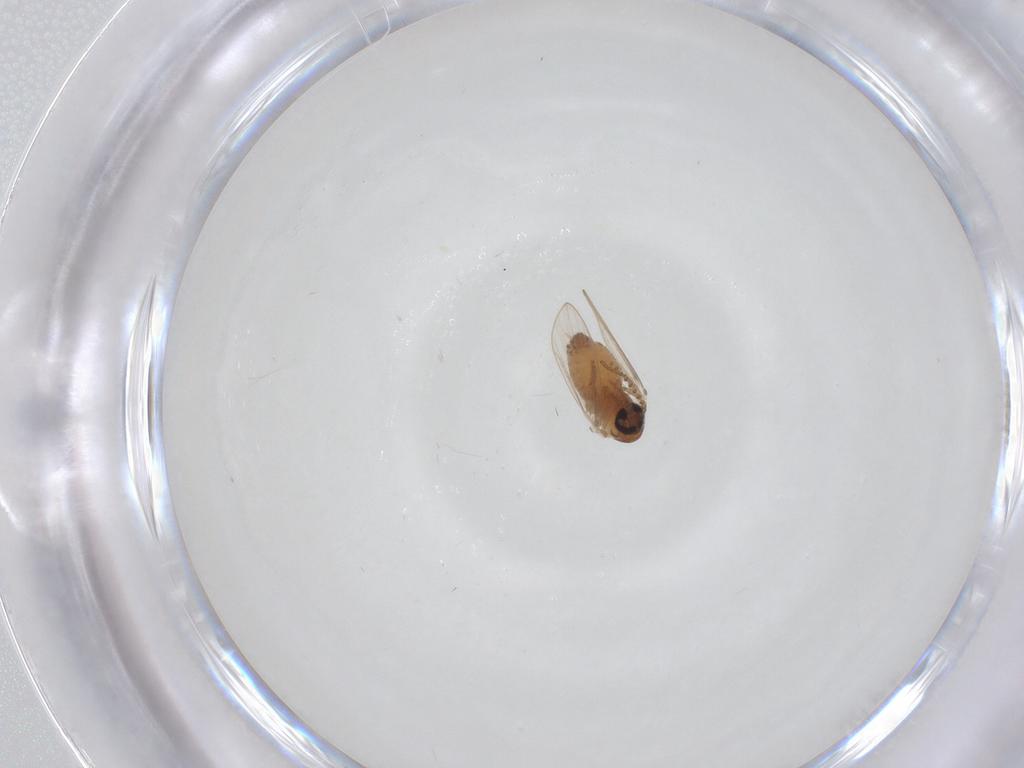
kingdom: Animalia
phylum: Arthropoda
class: Insecta
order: Diptera
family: Psychodidae
